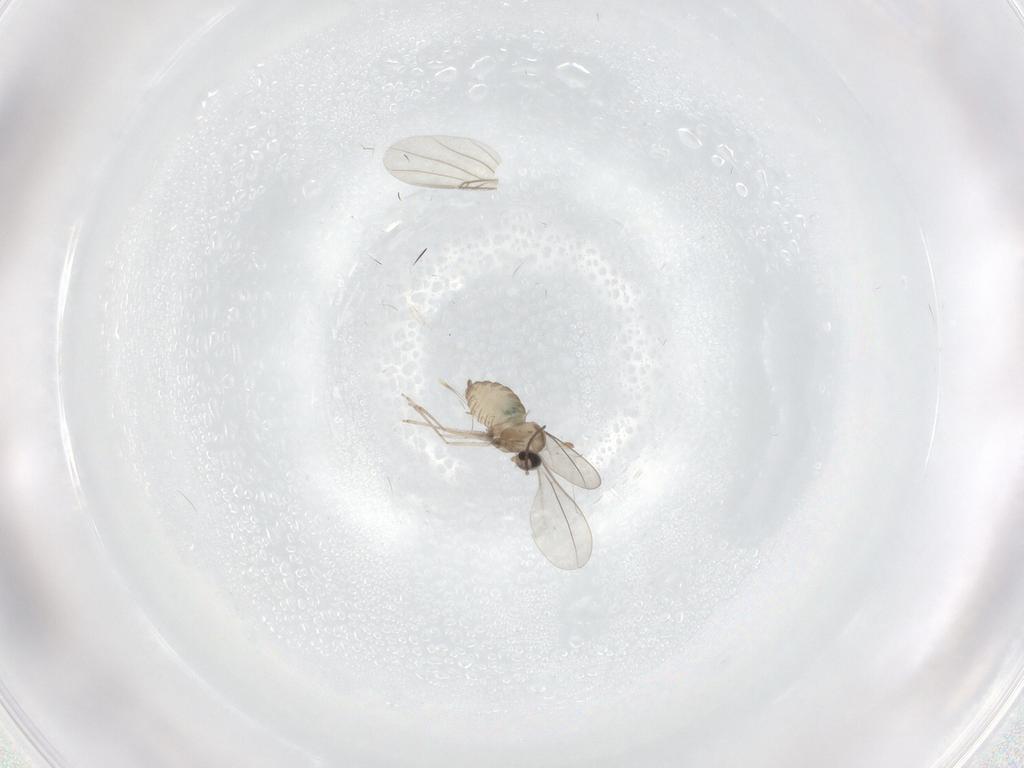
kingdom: Animalia
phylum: Arthropoda
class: Insecta
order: Diptera
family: Cecidomyiidae
